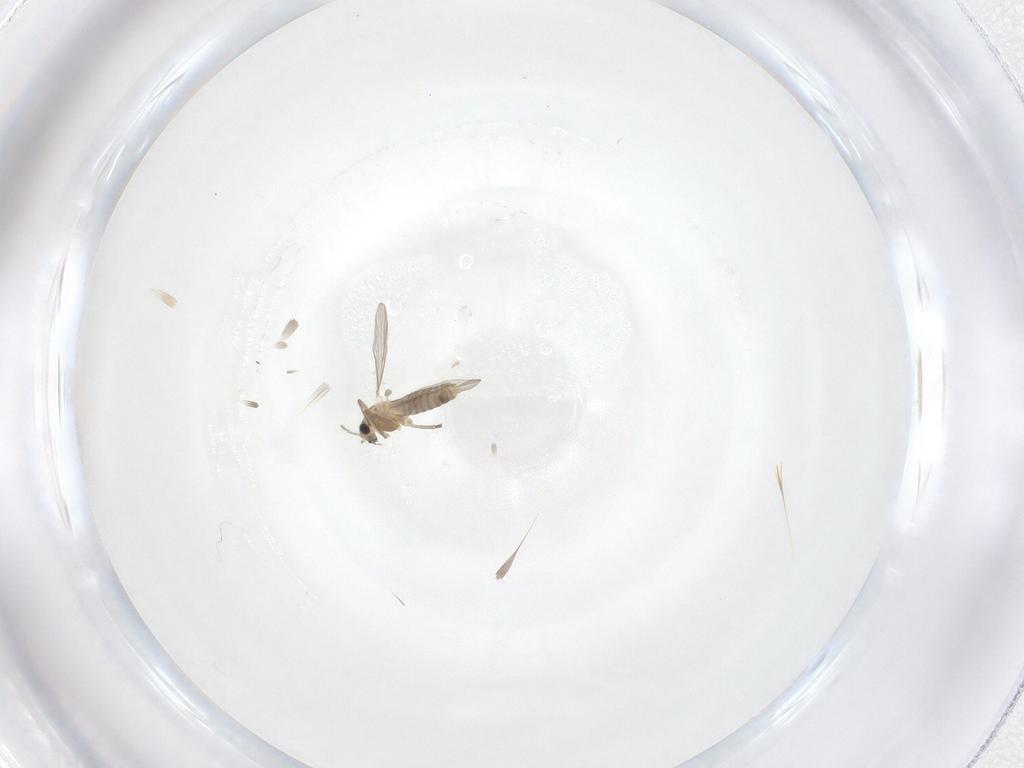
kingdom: Animalia
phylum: Arthropoda
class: Insecta
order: Diptera
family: Chironomidae
